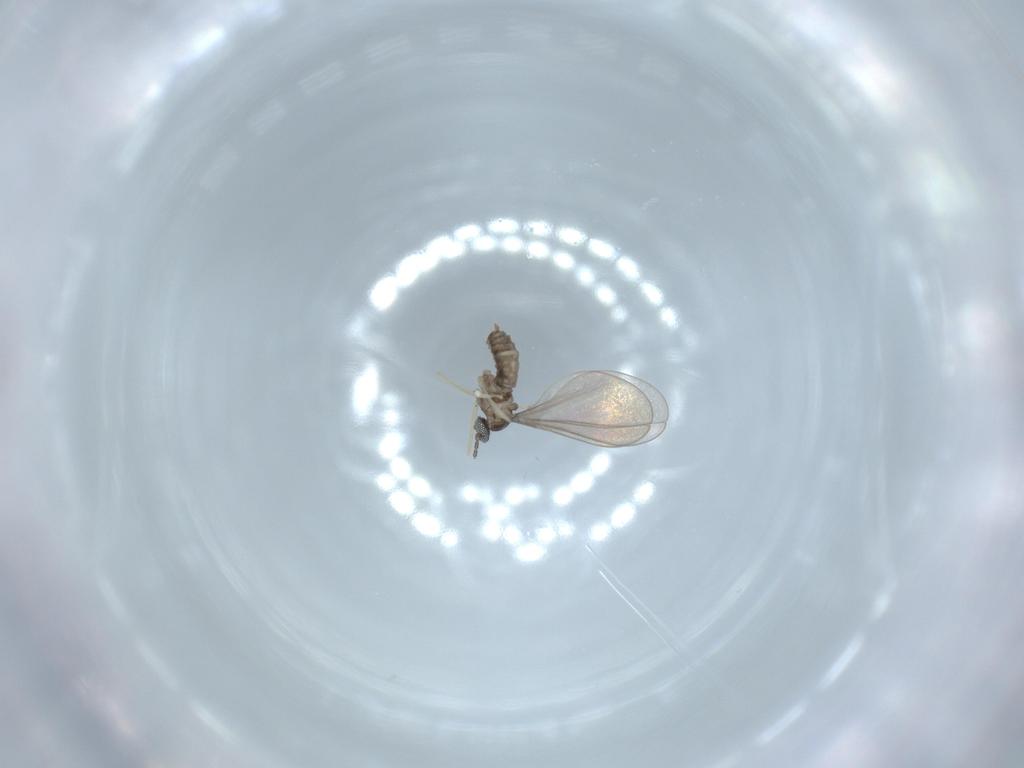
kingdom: Animalia
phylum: Arthropoda
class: Insecta
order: Diptera
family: Sciaridae
